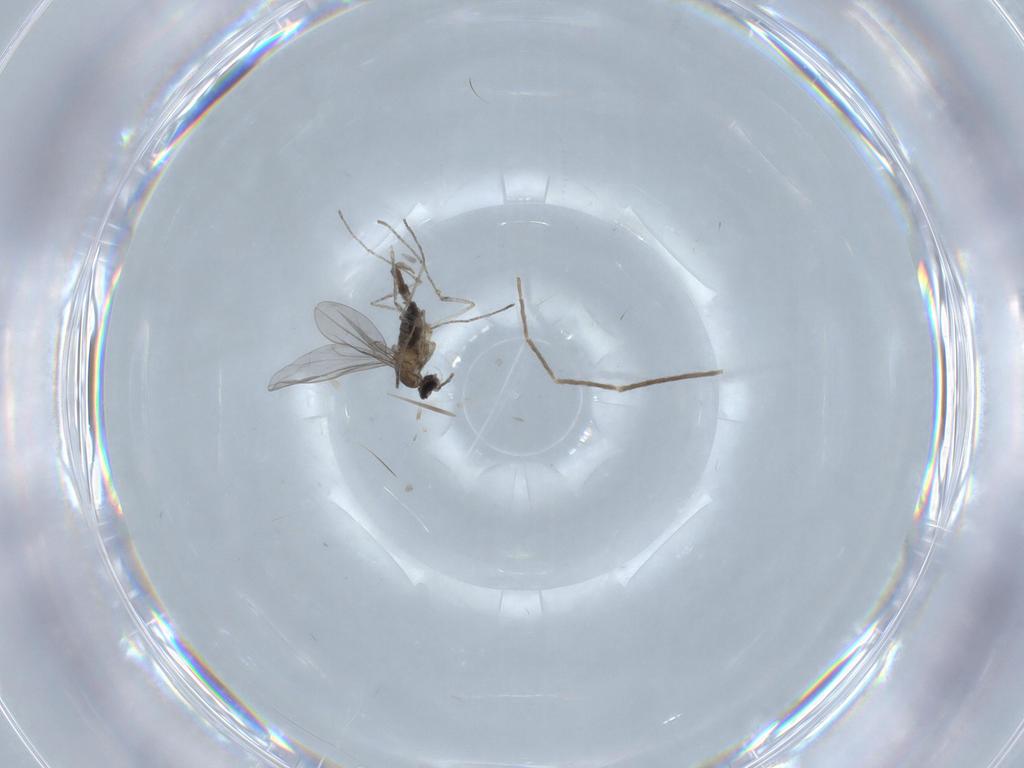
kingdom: Animalia
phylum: Arthropoda
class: Insecta
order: Diptera
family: Cecidomyiidae
